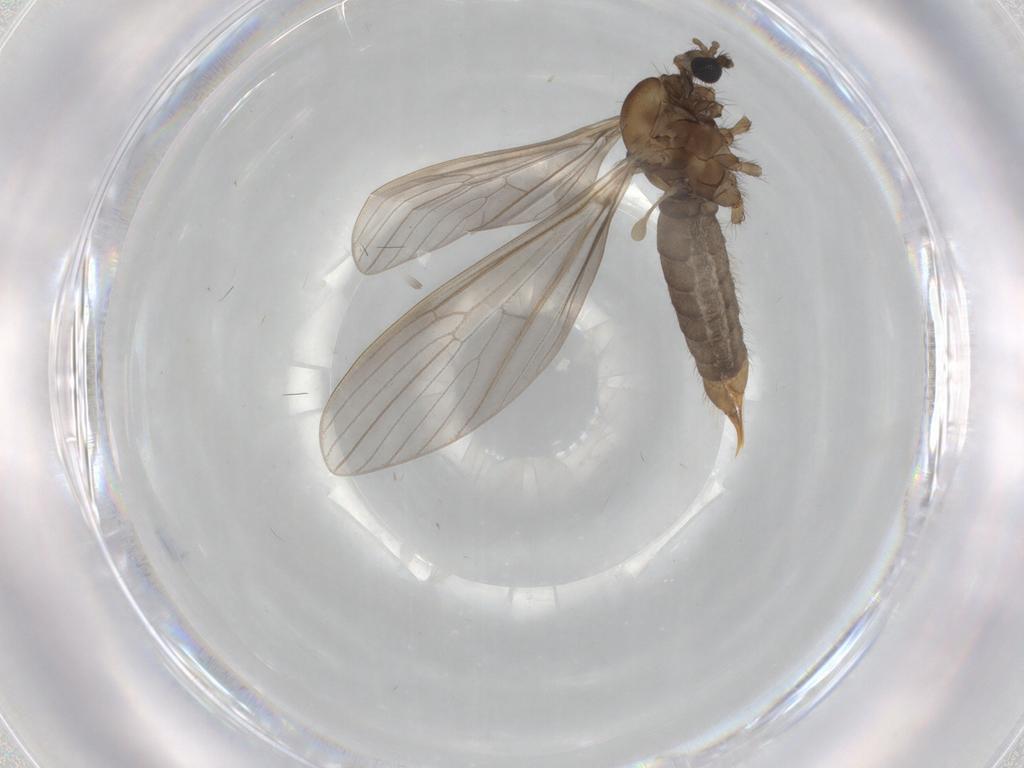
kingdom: Animalia
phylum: Arthropoda
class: Insecta
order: Diptera
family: Limoniidae
